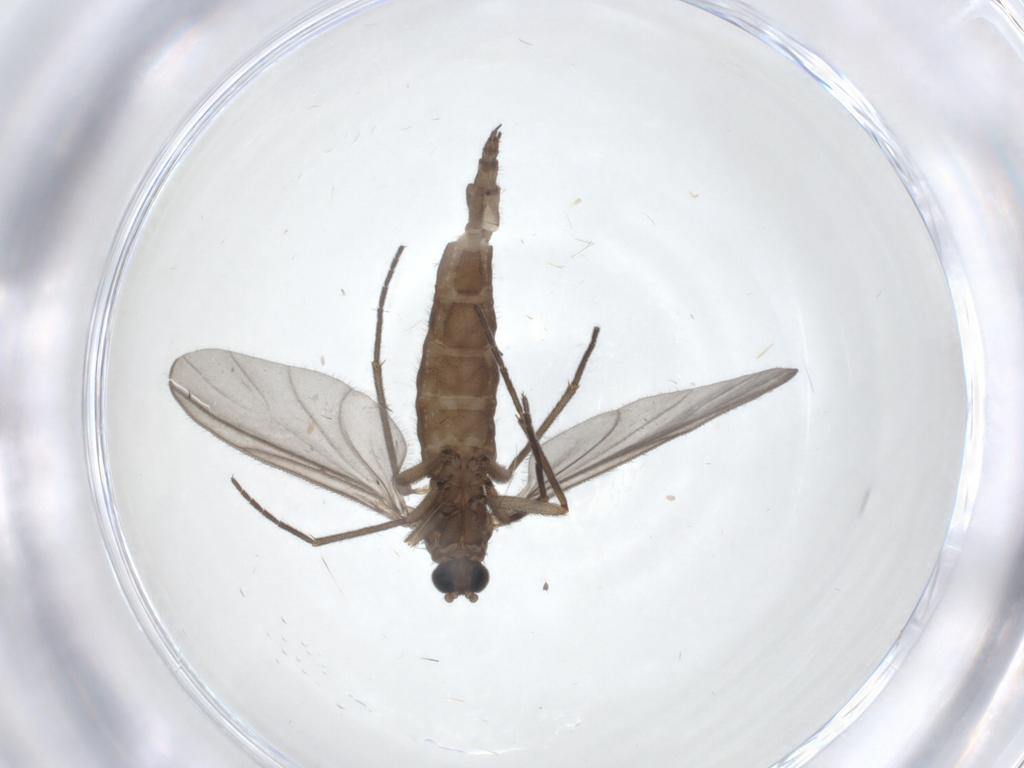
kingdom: Animalia
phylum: Arthropoda
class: Insecta
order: Diptera
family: Sciaridae
